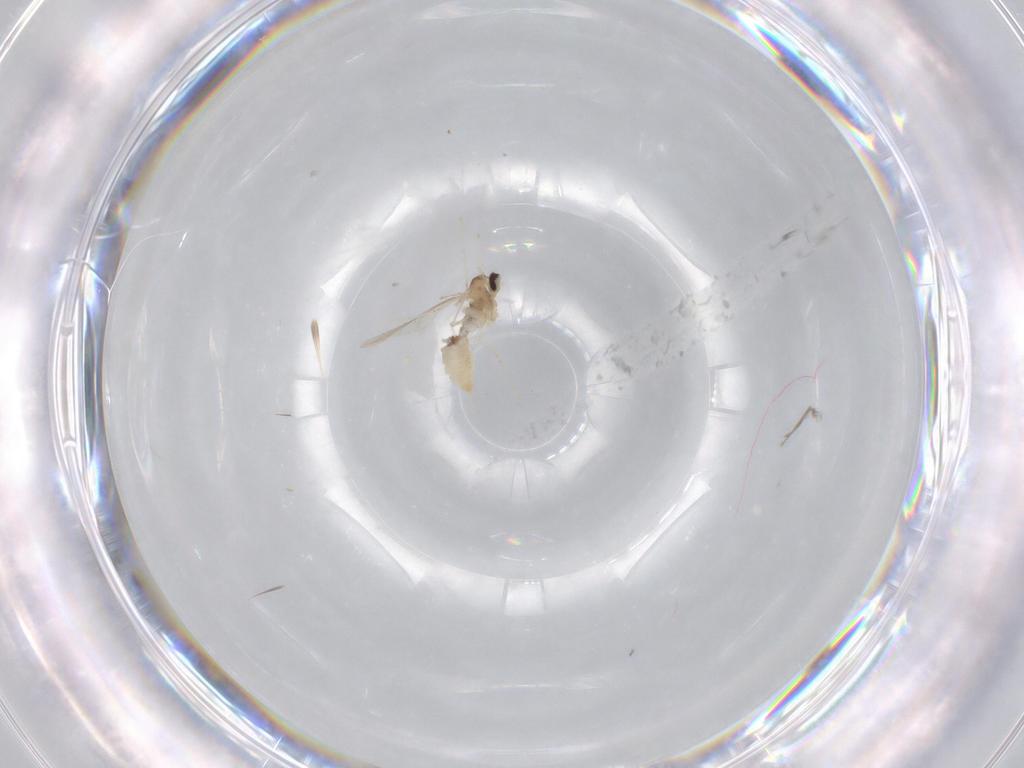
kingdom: Animalia
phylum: Arthropoda
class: Insecta
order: Diptera
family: Cecidomyiidae
